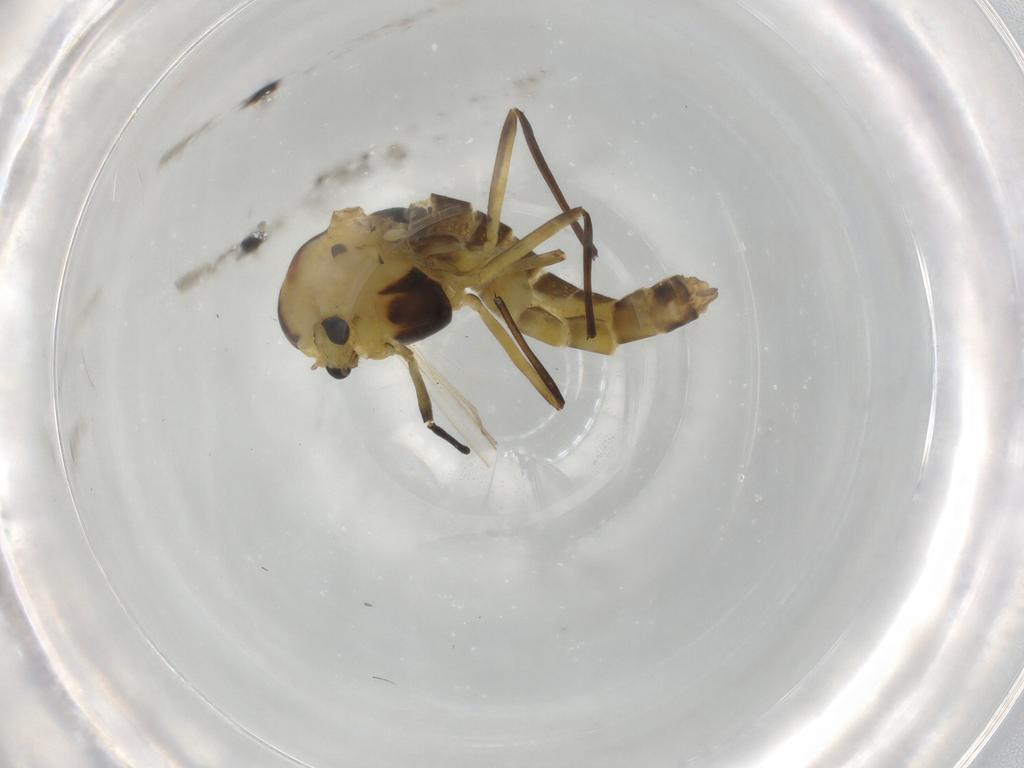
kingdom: Animalia
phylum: Arthropoda
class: Insecta
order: Diptera
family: Chironomidae
